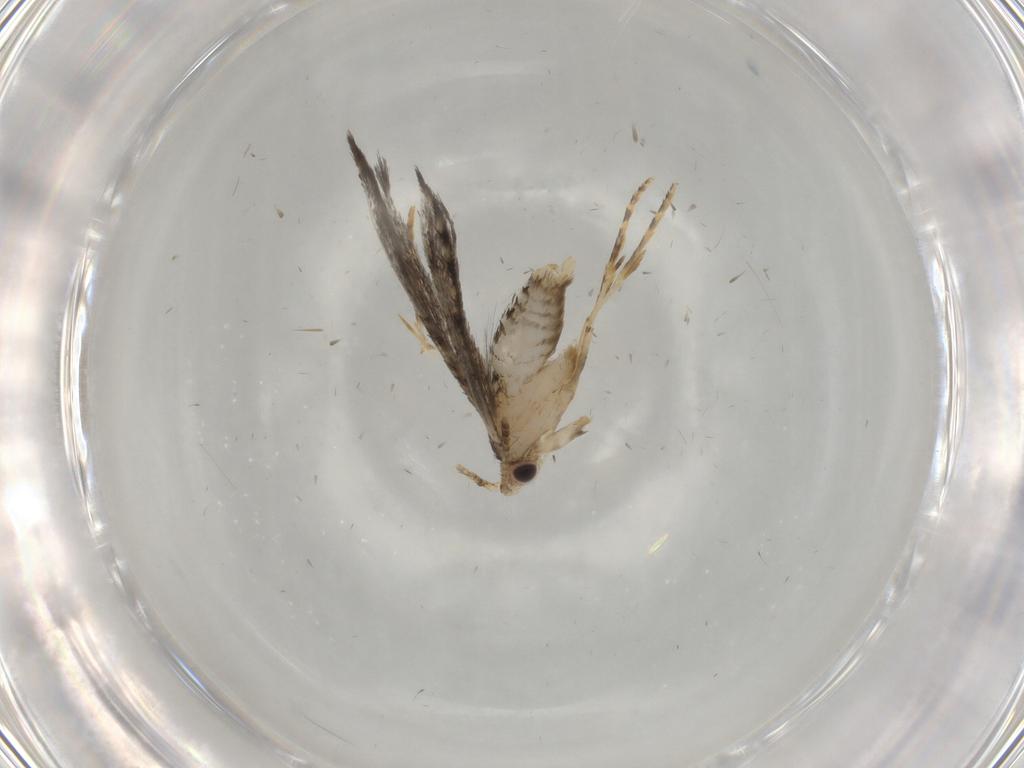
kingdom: Animalia
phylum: Arthropoda
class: Insecta
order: Lepidoptera
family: Tineidae
